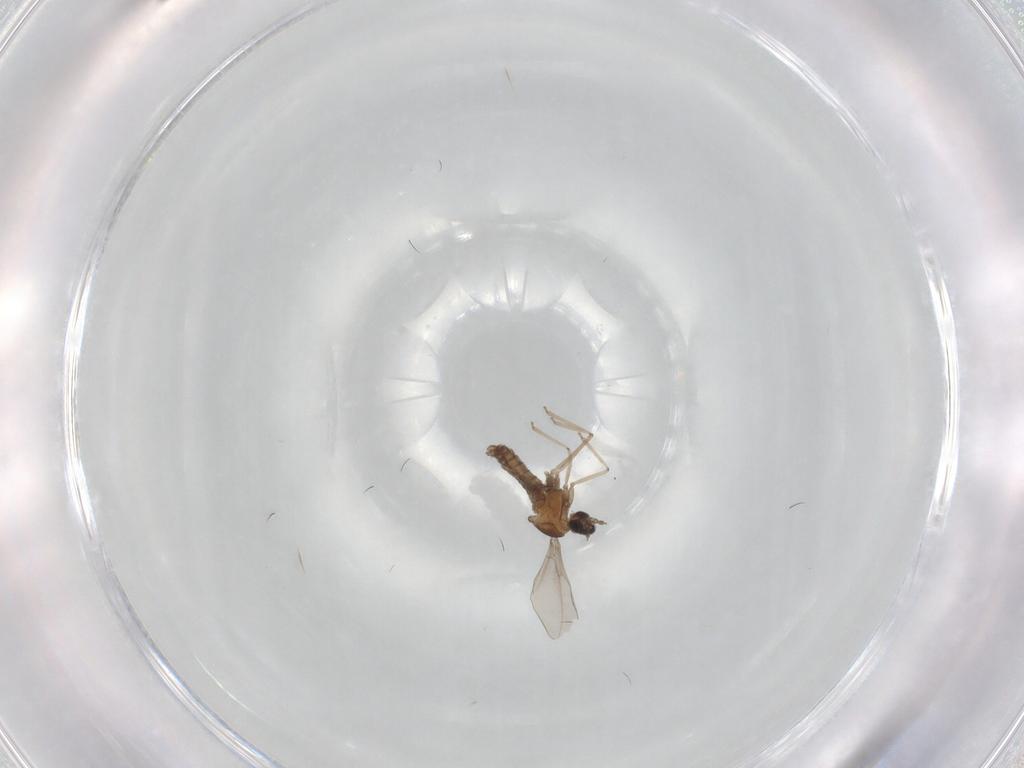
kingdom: Animalia
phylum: Arthropoda
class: Insecta
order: Diptera
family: Cecidomyiidae
